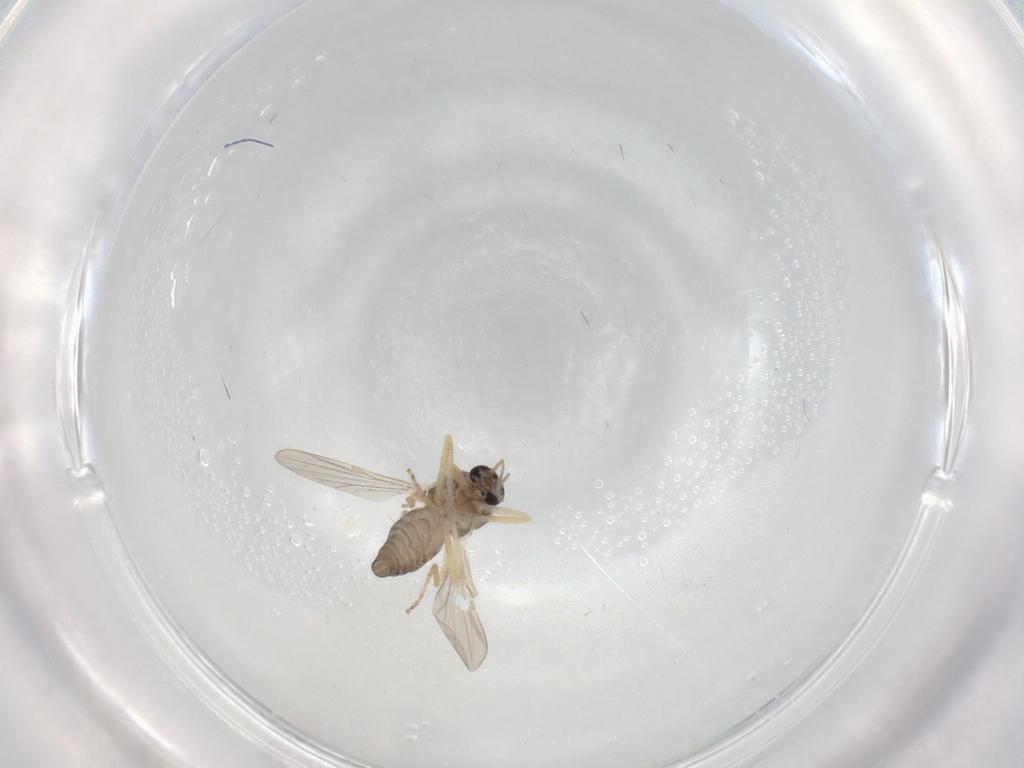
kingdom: Animalia
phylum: Arthropoda
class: Insecta
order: Diptera
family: Ceratopogonidae
